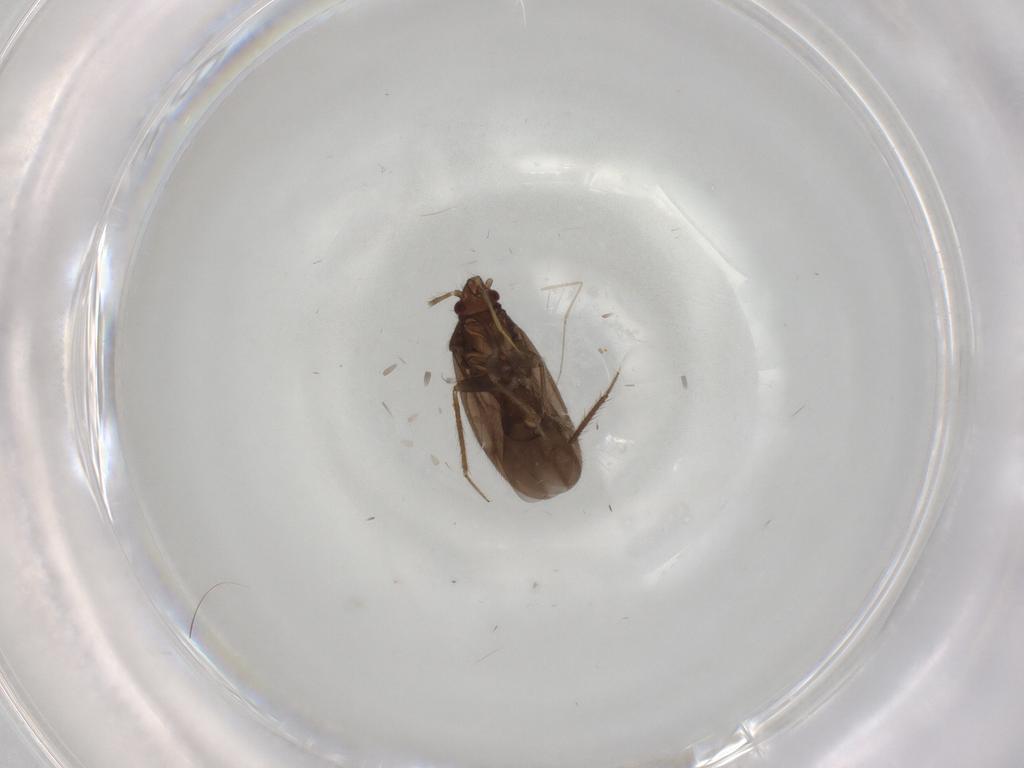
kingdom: Animalia
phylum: Arthropoda
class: Insecta
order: Hemiptera
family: Ceratocombidae
